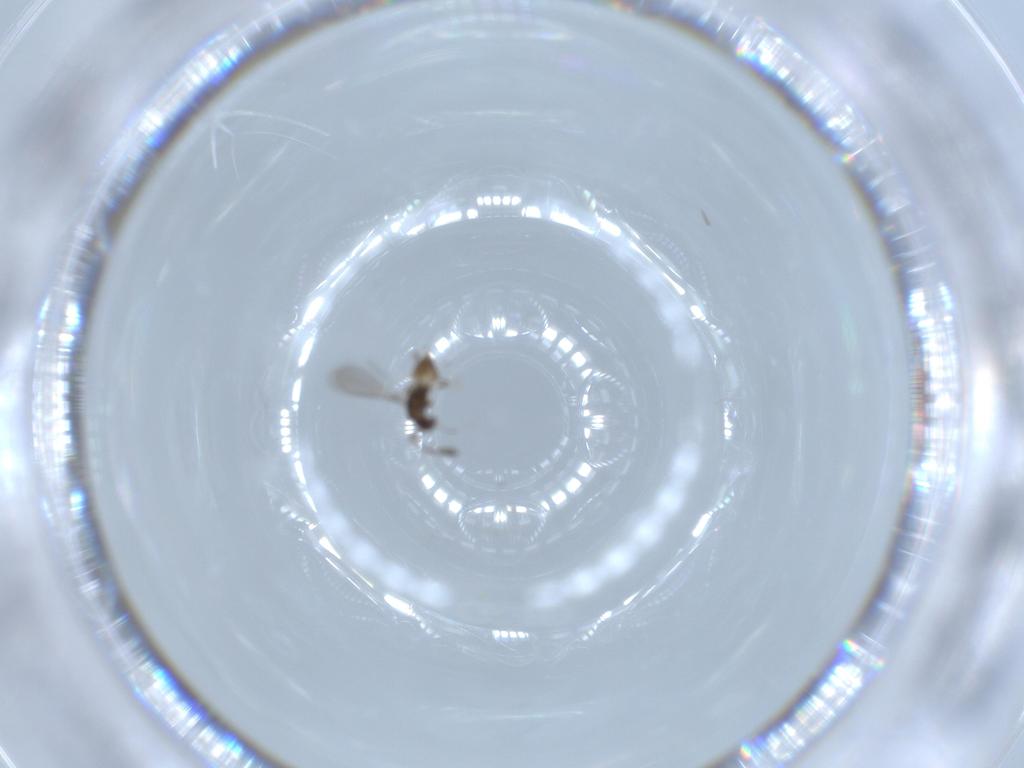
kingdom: Animalia
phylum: Arthropoda
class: Insecta
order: Hymenoptera
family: Mymaridae
